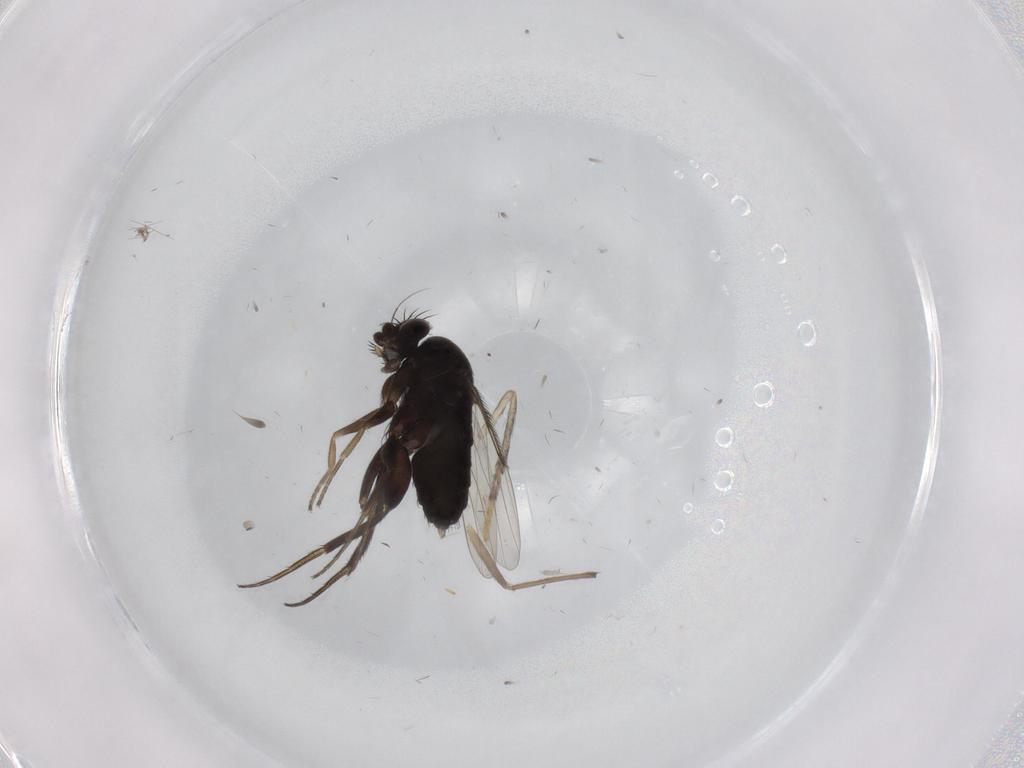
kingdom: Animalia
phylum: Arthropoda
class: Insecta
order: Diptera
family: Phoridae
